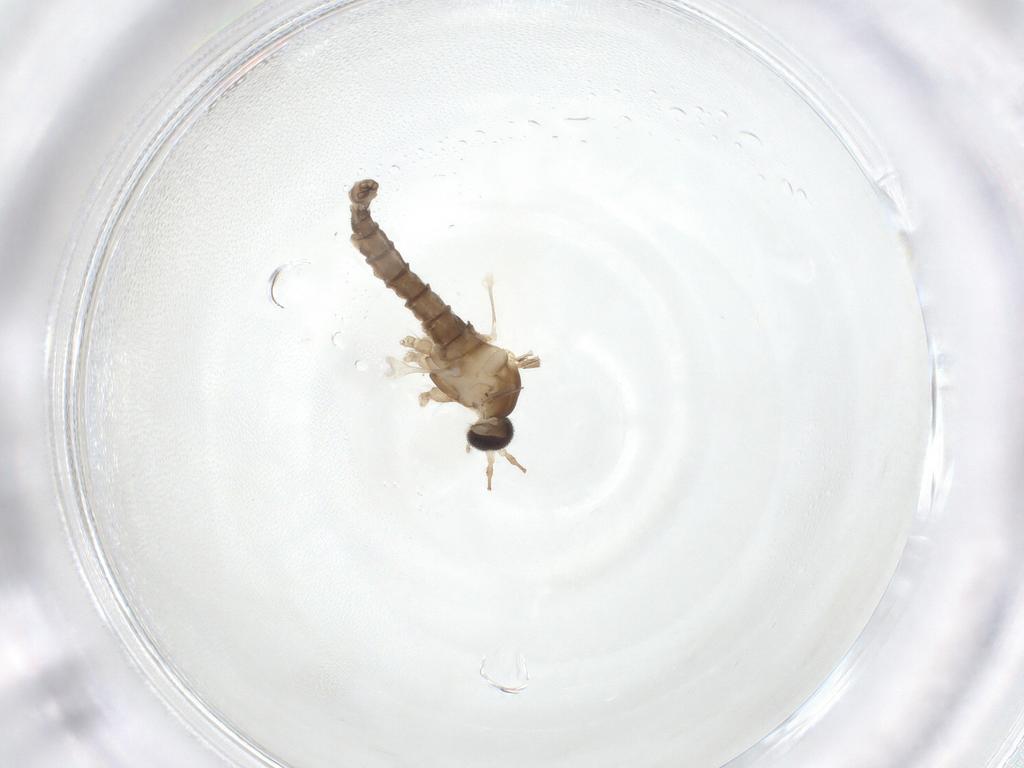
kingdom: Animalia
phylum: Arthropoda
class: Insecta
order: Diptera
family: Cecidomyiidae
